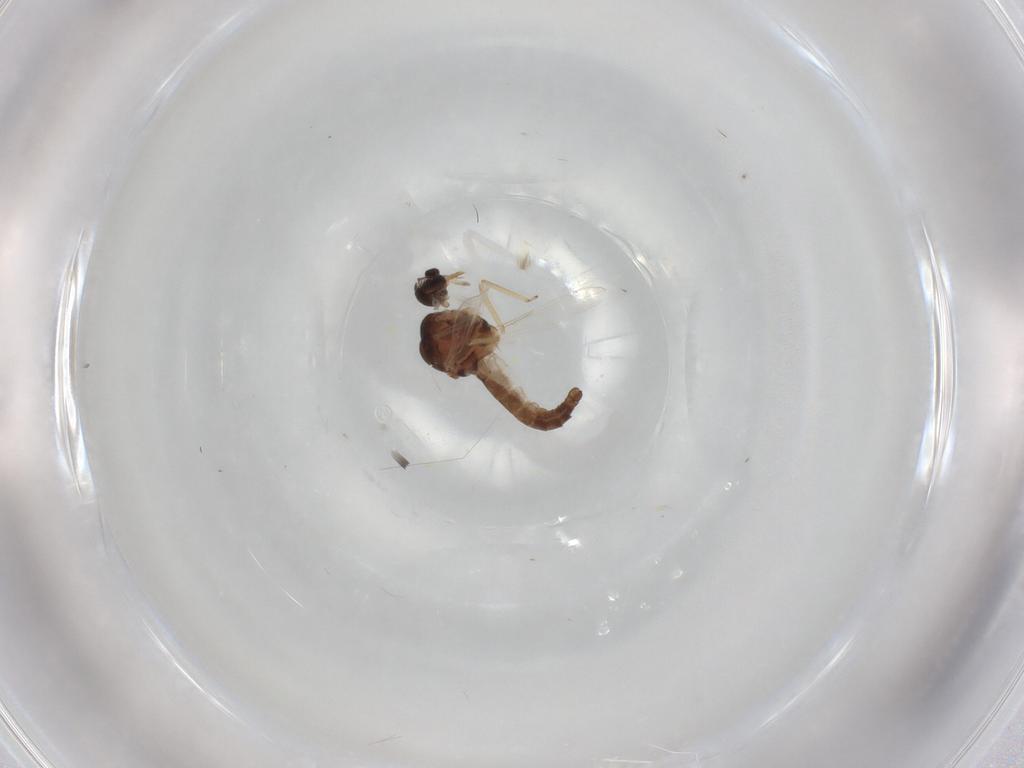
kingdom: Animalia
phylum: Arthropoda
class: Insecta
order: Diptera
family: Ceratopogonidae
